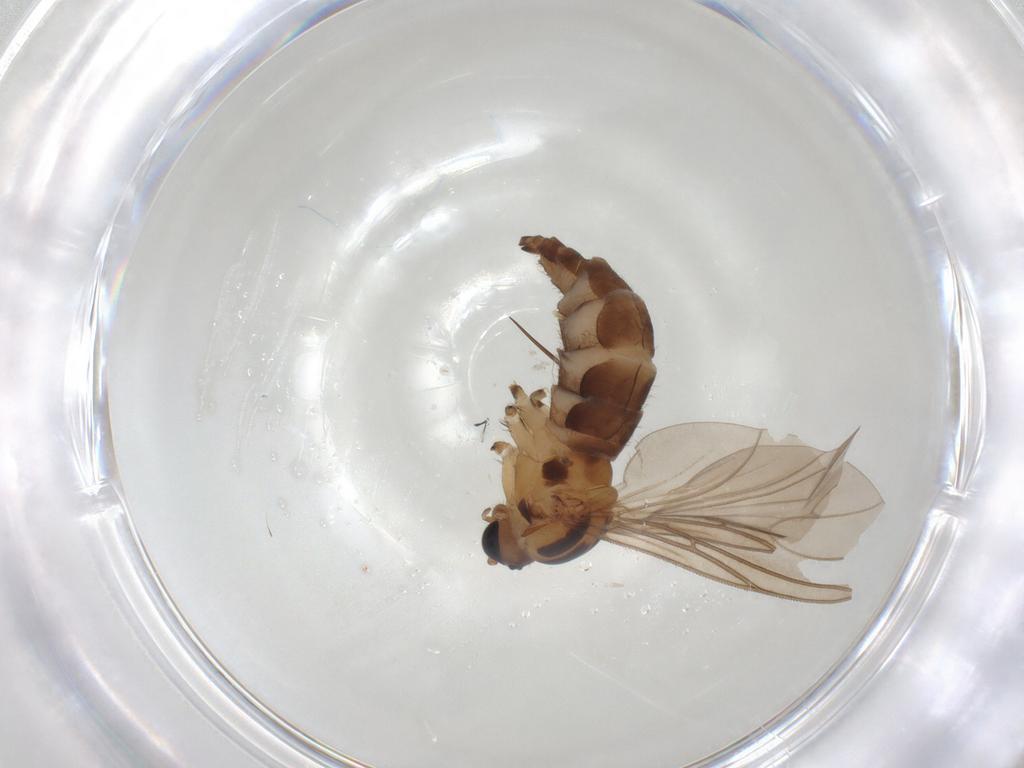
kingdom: Animalia
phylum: Arthropoda
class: Insecta
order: Diptera
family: Sciaridae
